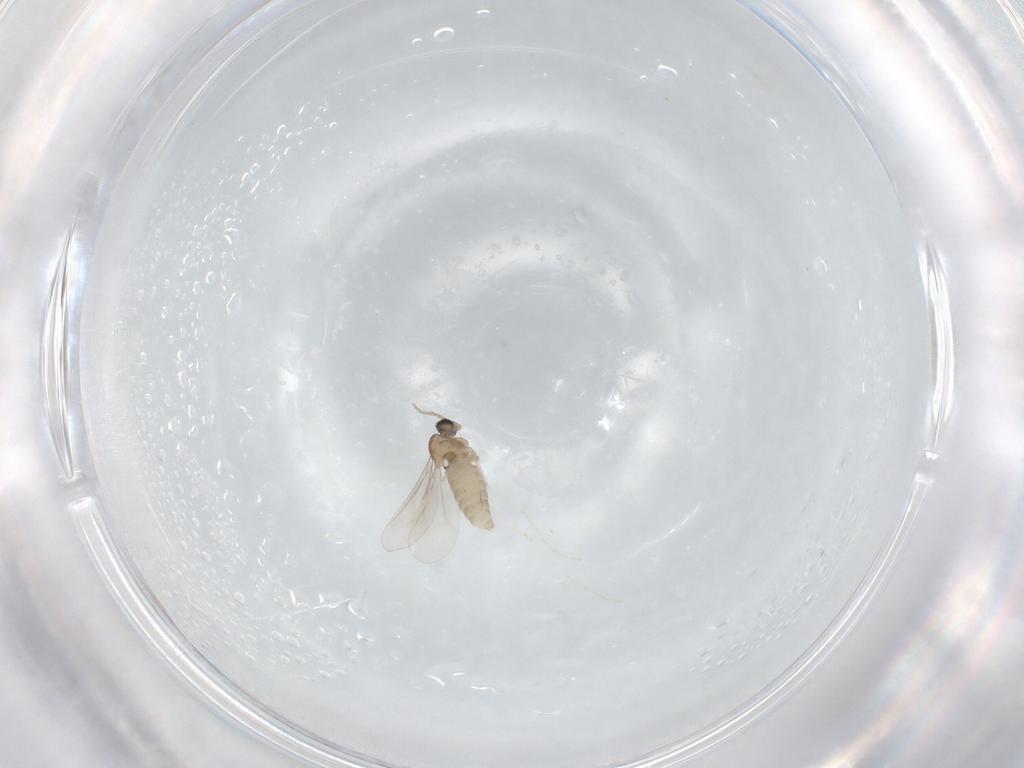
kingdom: Animalia
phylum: Arthropoda
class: Insecta
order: Diptera
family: Cecidomyiidae
